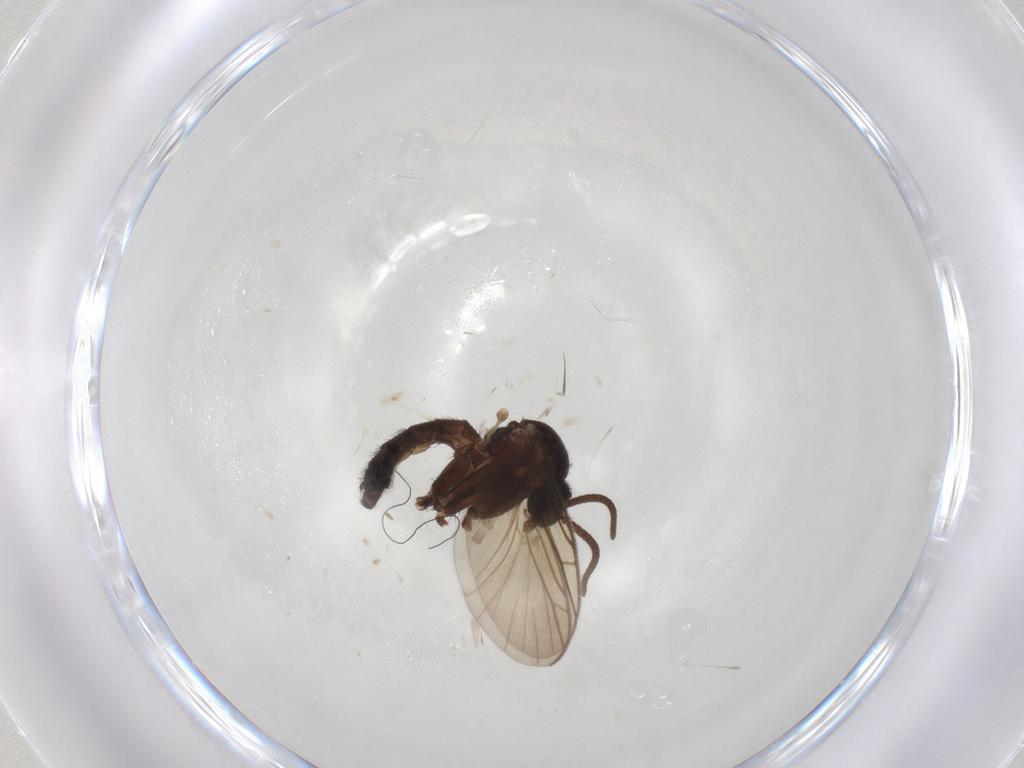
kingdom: Animalia
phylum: Arthropoda
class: Insecta
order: Diptera
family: Keroplatidae
